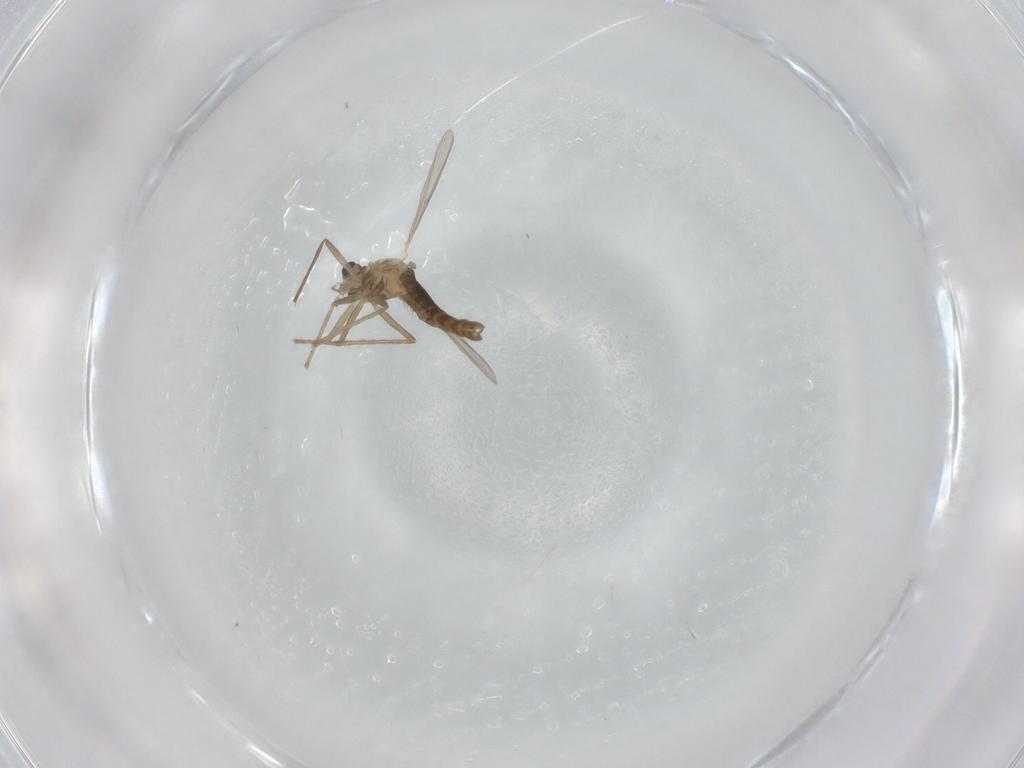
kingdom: Animalia
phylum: Arthropoda
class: Insecta
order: Diptera
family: Chironomidae
